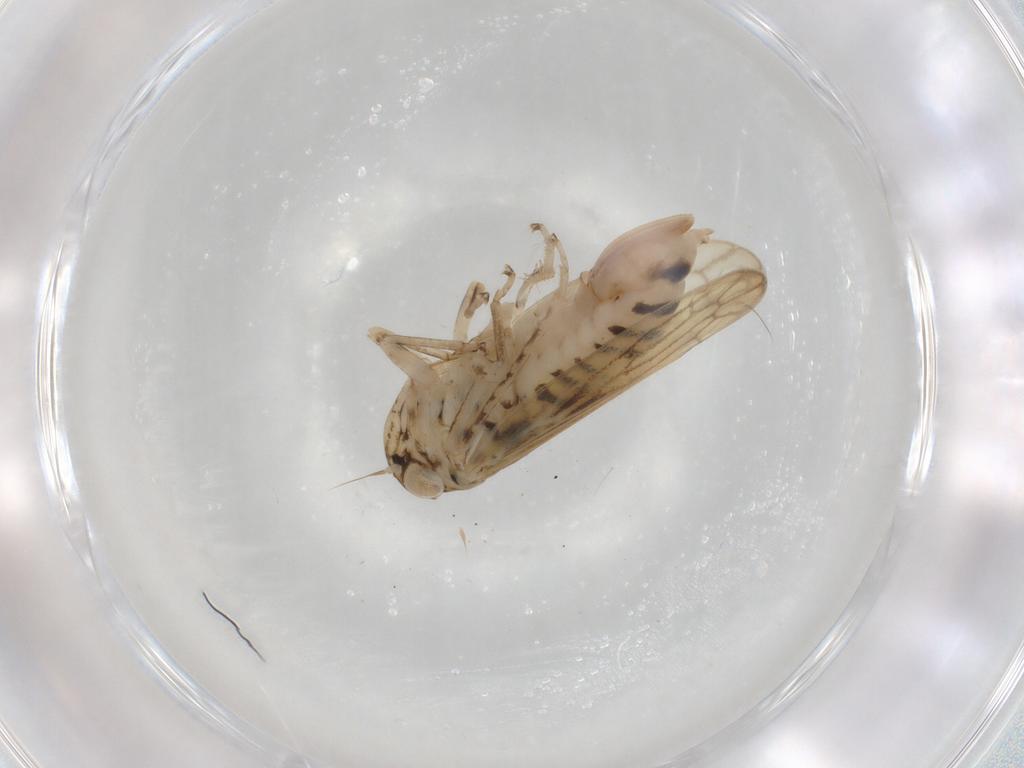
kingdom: Animalia
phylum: Arthropoda
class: Insecta
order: Hemiptera
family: Cicadellidae
